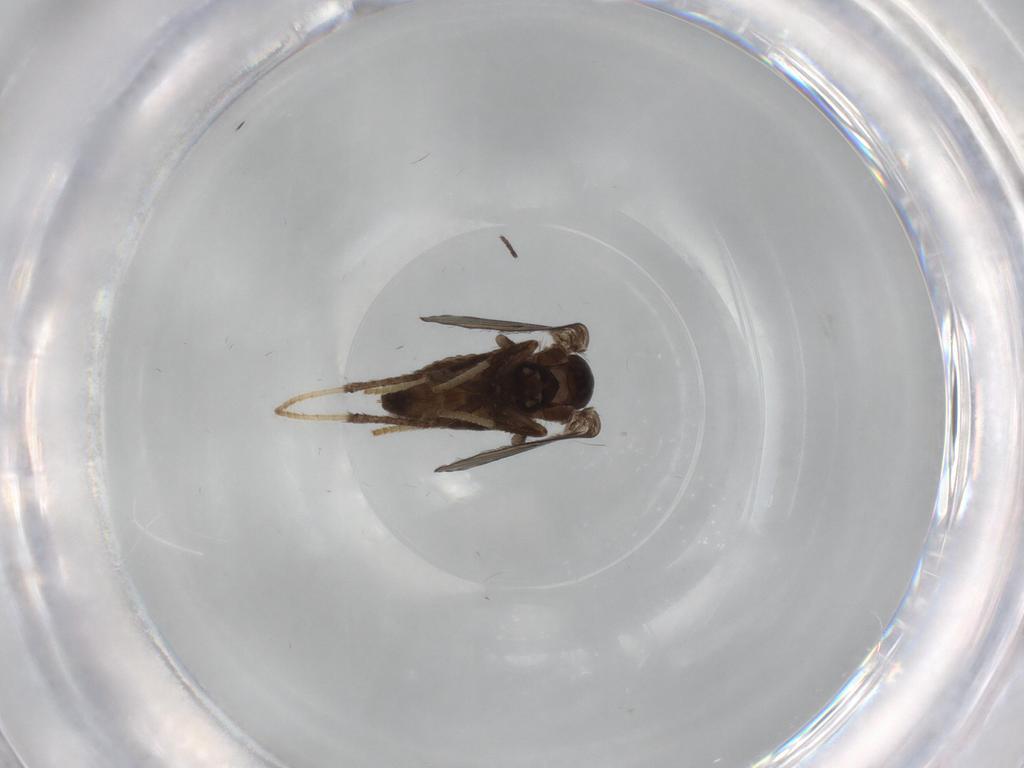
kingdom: Animalia
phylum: Arthropoda
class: Insecta
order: Diptera
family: Psychodidae
